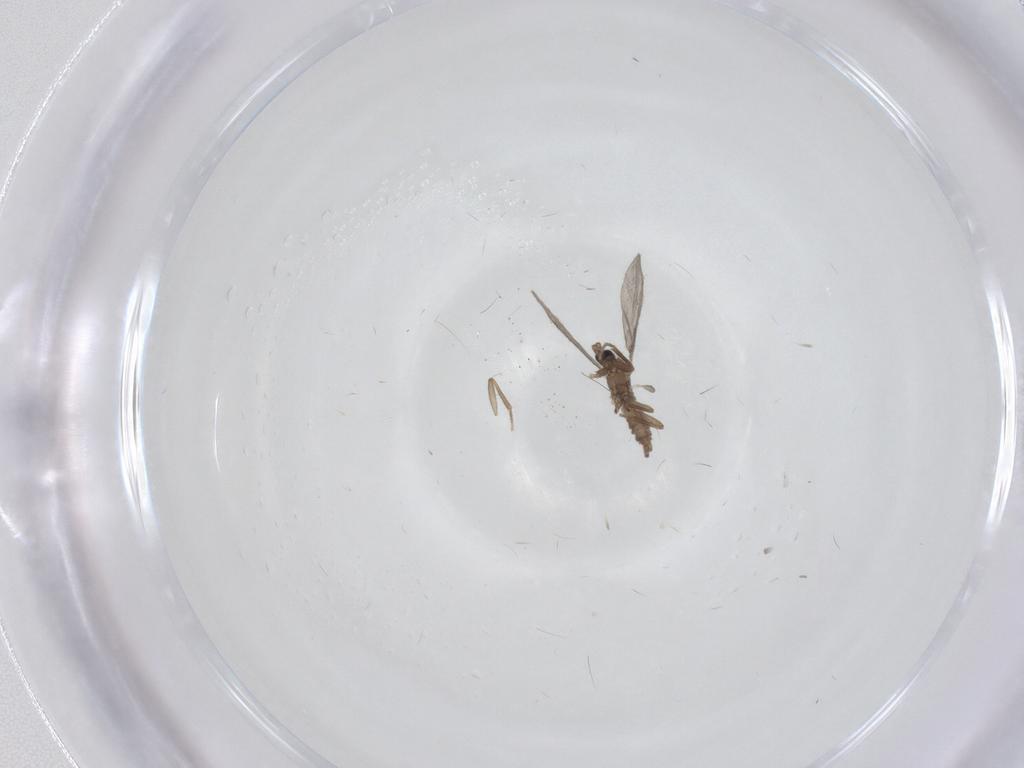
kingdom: Animalia
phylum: Arthropoda
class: Insecta
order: Diptera
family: Sciaridae
